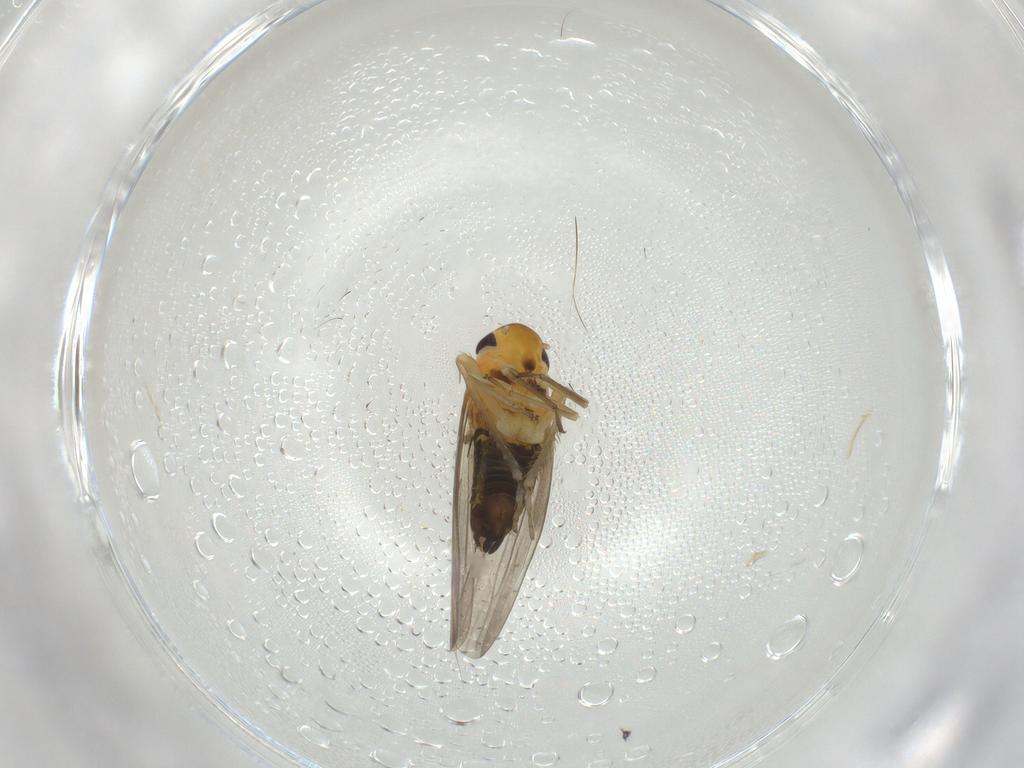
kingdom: Animalia
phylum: Arthropoda
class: Insecta
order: Hemiptera
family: Cicadellidae
